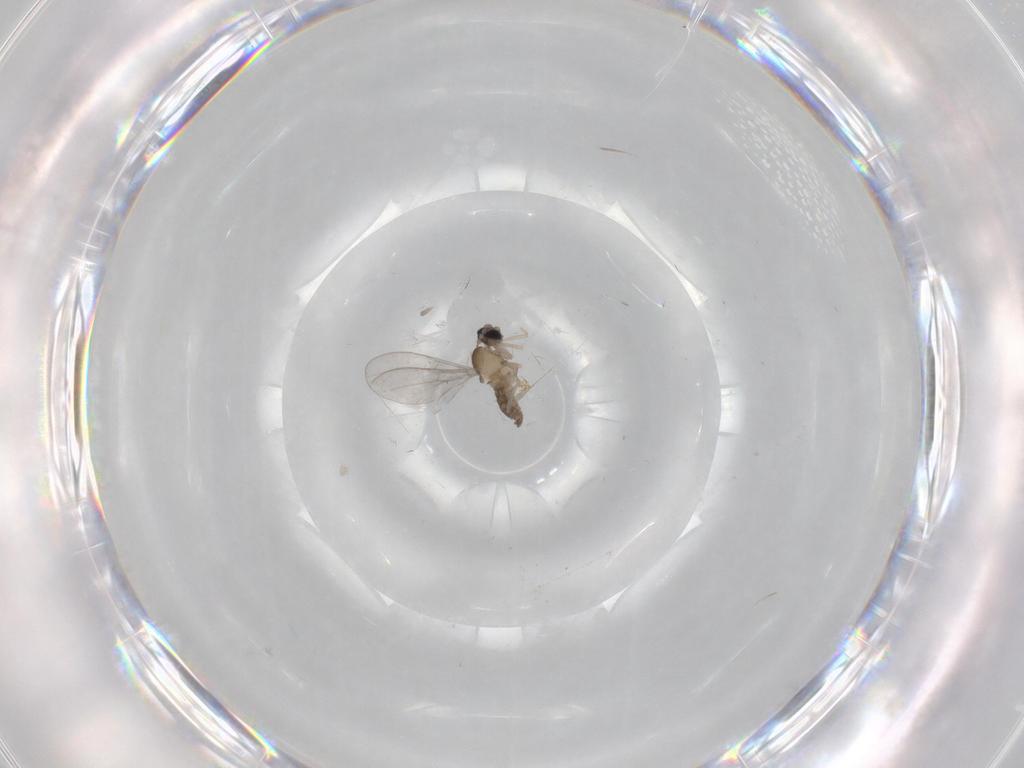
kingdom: Animalia
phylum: Arthropoda
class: Insecta
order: Diptera
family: Cecidomyiidae
